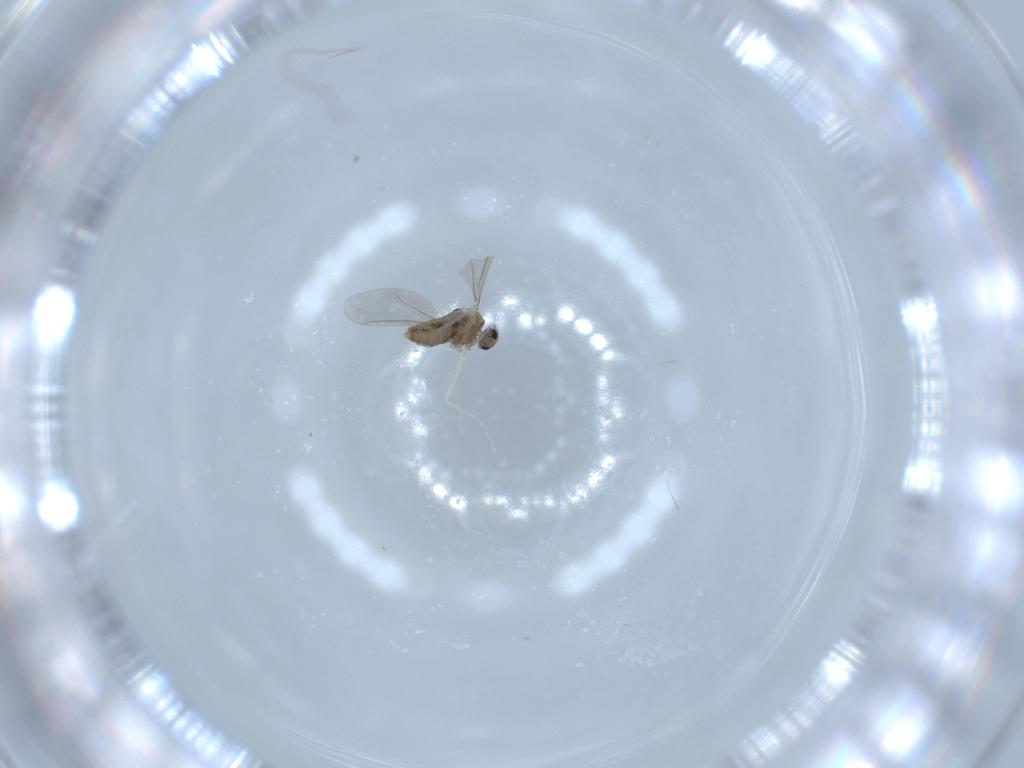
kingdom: Animalia
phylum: Arthropoda
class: Insecta
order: Diptera
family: Cecidomyiidae
